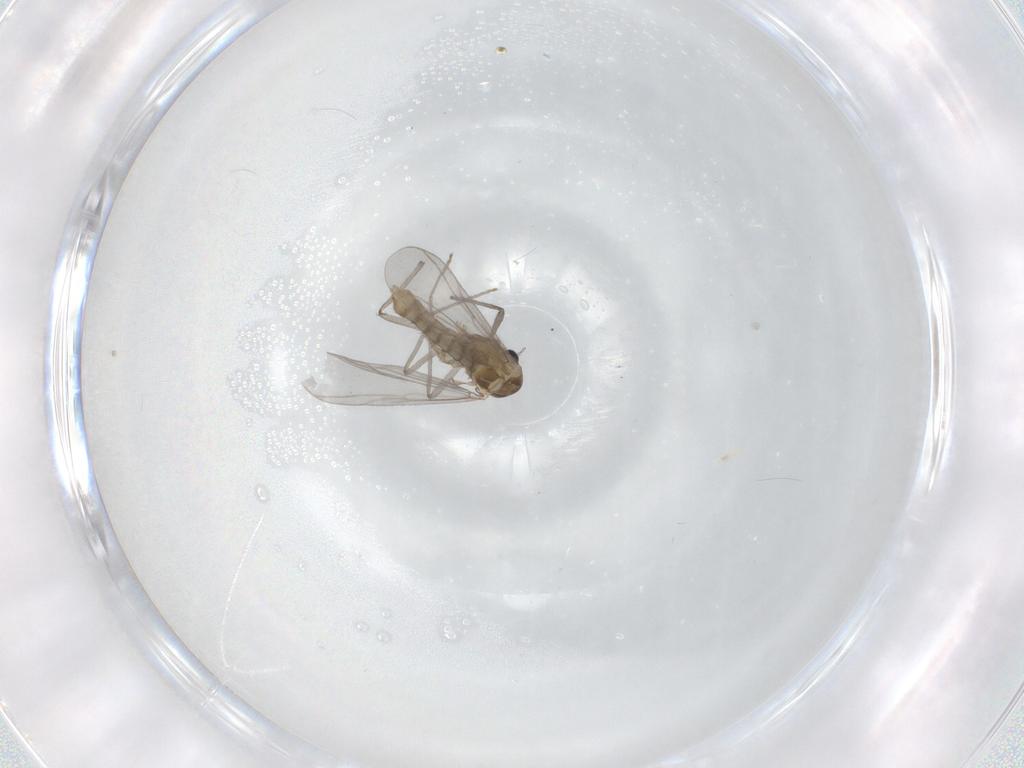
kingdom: Animalia
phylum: Arthropoda
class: Insecta
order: Diptera
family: Chironomidae
